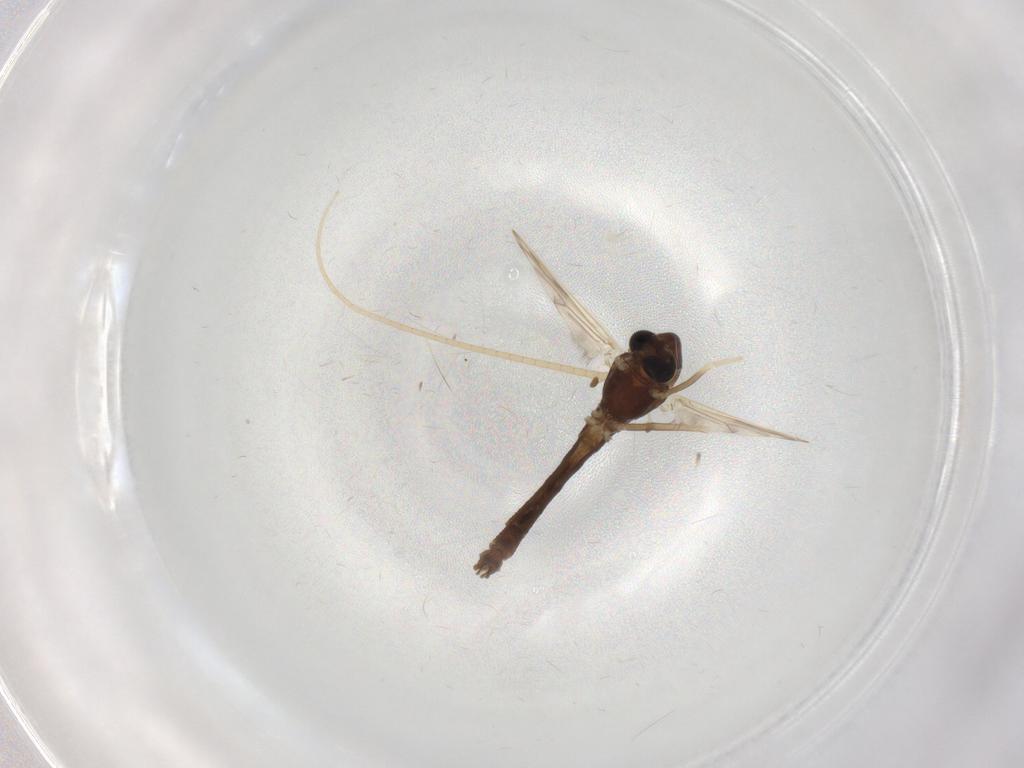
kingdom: Animalia
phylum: Arthropoda
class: Insecta
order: Diptera
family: Chironomidae
